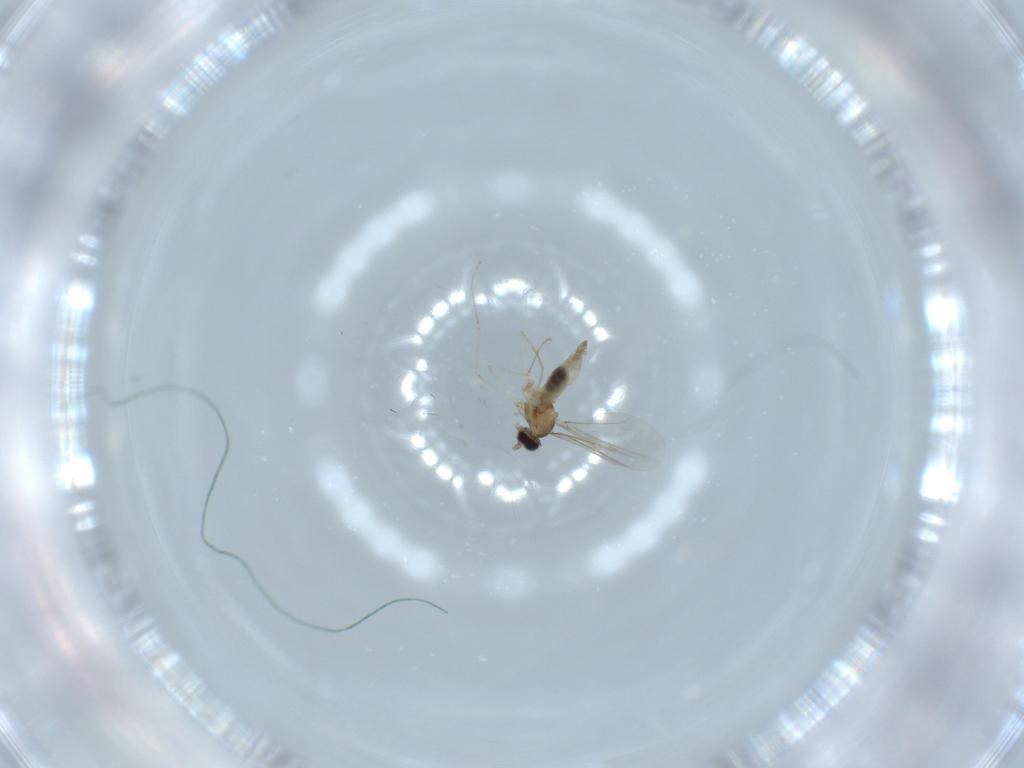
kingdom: Animalia
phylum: Arthropoda
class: Insecta
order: Diptera
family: Cecidomyiidae
